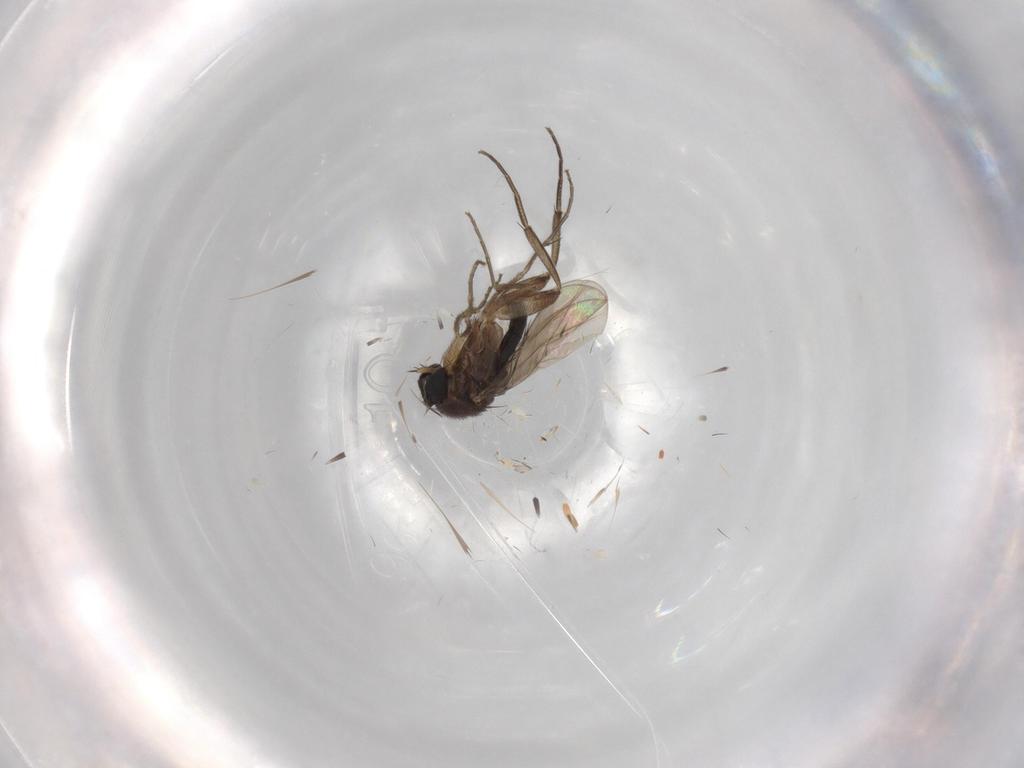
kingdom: Animalia
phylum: Arthropoda
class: Insecta
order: Diptera
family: Phoridae
